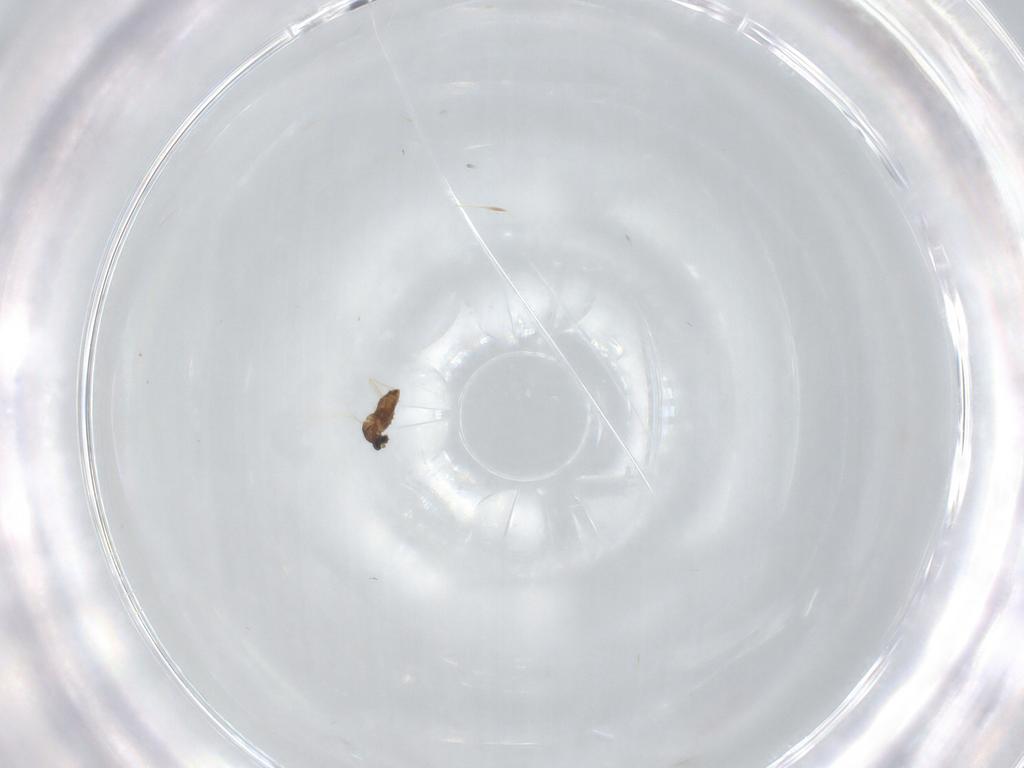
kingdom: Animalia
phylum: Arthropoda
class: Insecta
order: Diptera
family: Cecidomyiidae
